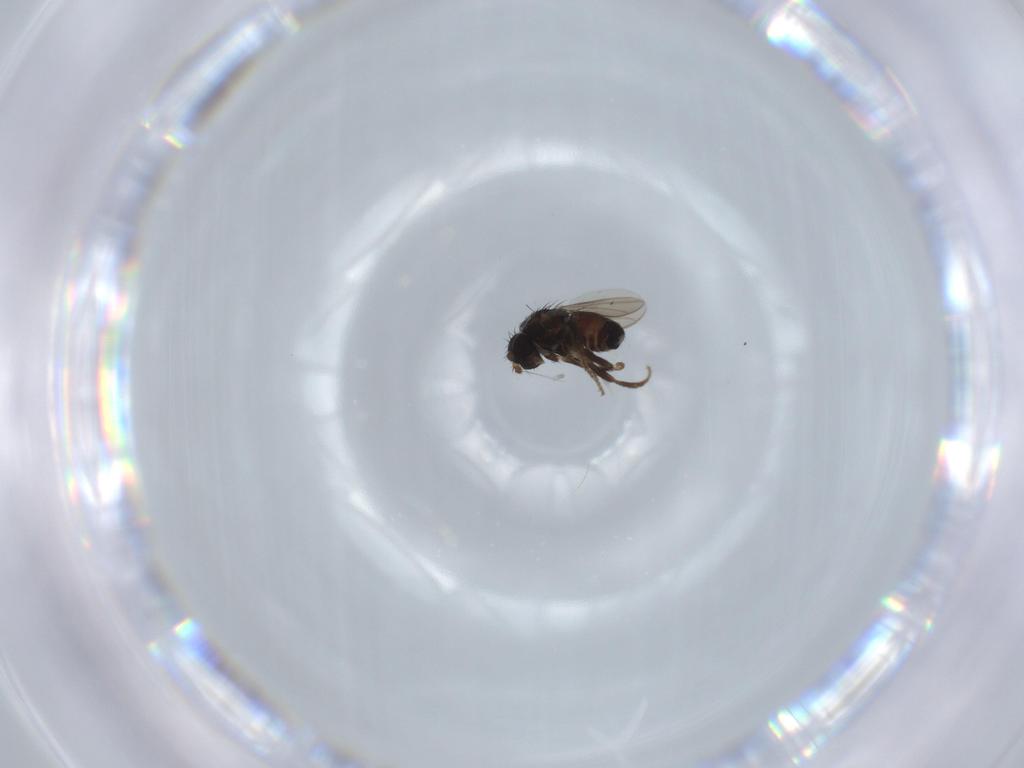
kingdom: Animalia
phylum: Arthropoda
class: Insecta
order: Diptera
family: Sphaeroceridae
